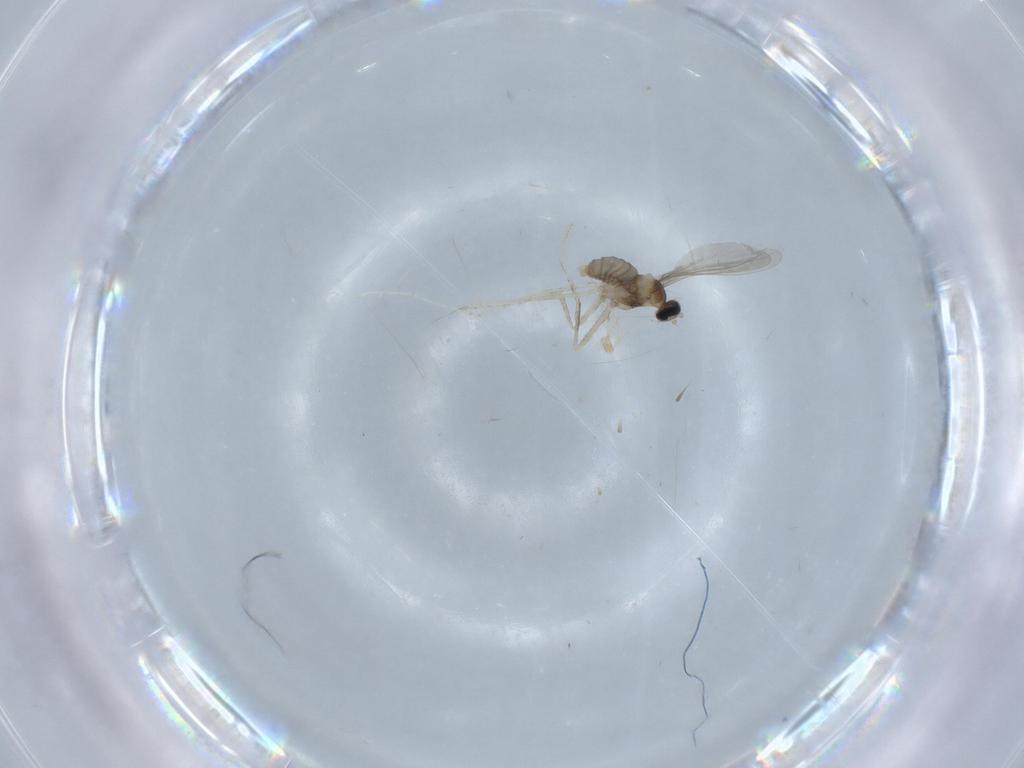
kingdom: Animalia
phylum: Arthropoda
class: Insecta
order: Diptera
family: Cecidomyiidae
